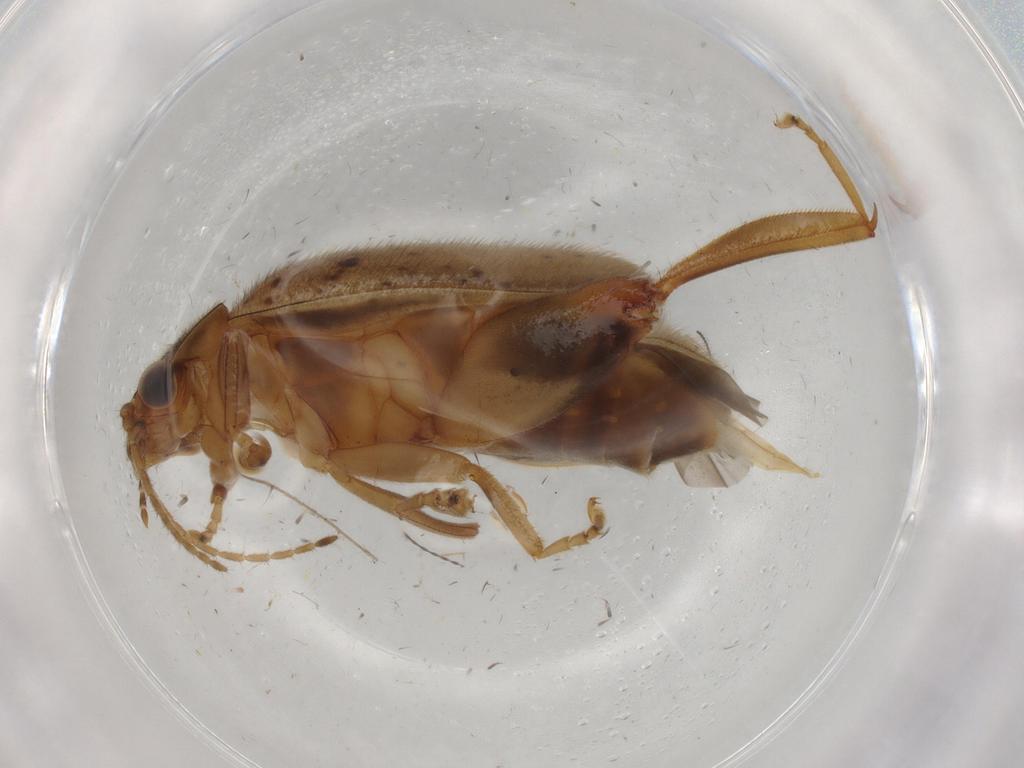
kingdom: Animalia
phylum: Arthropoda
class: Insecta
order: Coleoptera
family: Scirtidae
